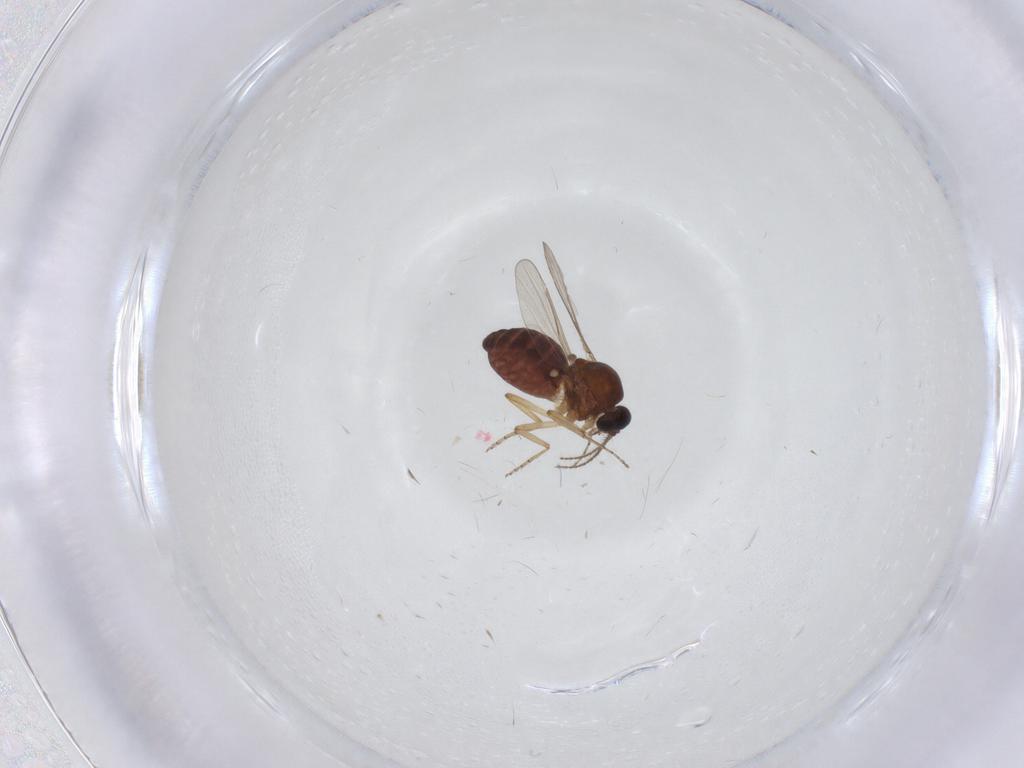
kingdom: Animalia
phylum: Arthropoda
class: Insecta
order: Diptera
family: Ceratopogonidae
